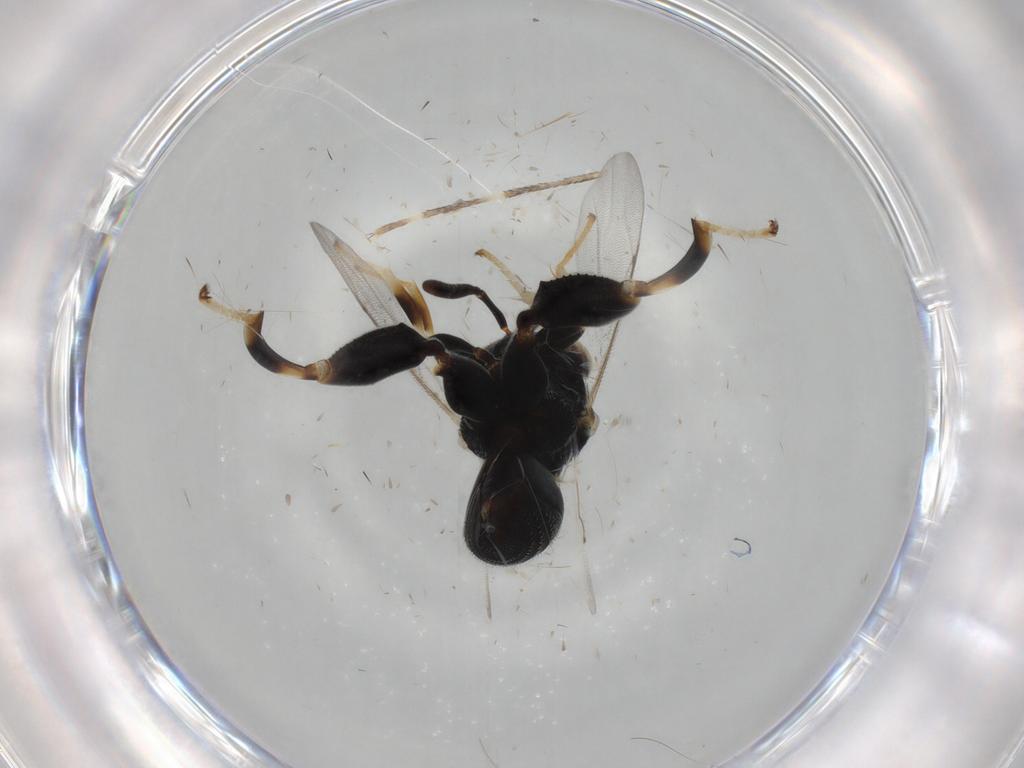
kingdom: Animalia
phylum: Arthropoda
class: Insecta
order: Hymenoptera
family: Chalcididae
